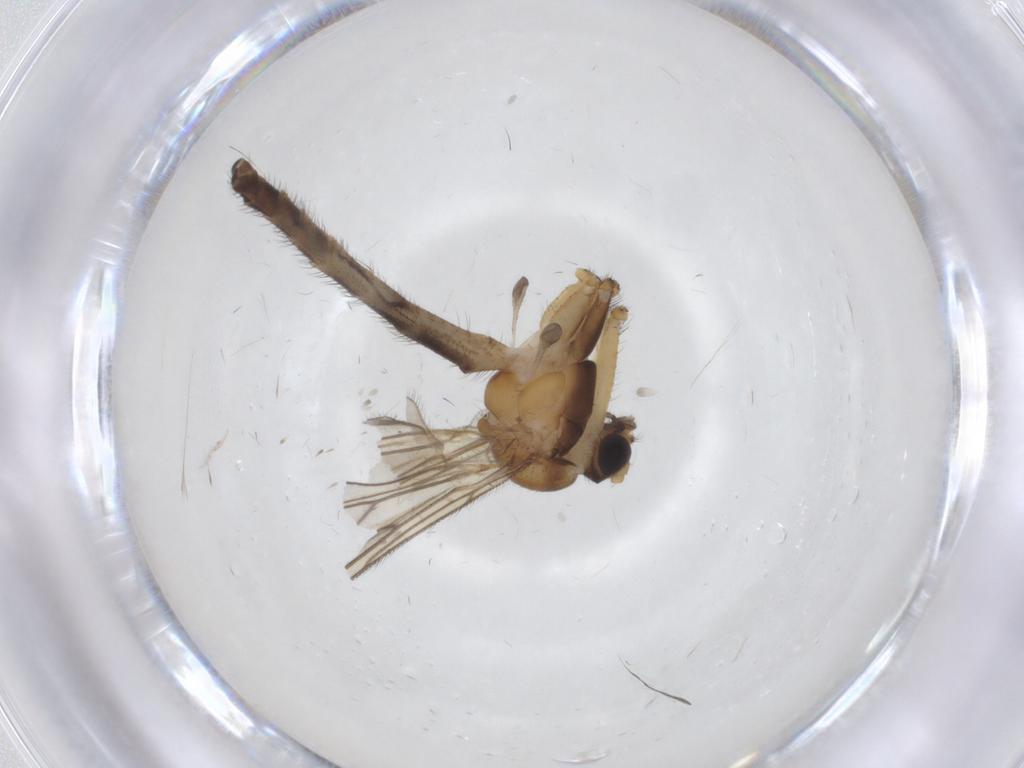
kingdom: Animalia
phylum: Arthropoda
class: Insecta
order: Diptera
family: Keroplatidae
